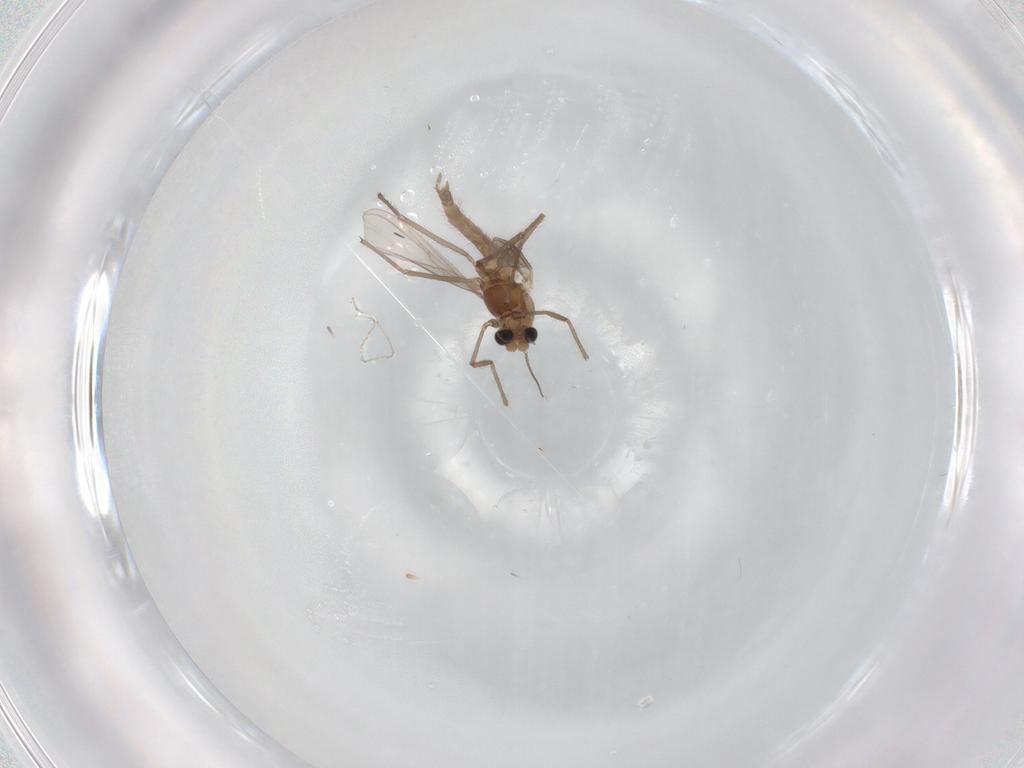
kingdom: Animalia
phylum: Arthropoda
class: Insecta
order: Diptera
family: Chironomidae
